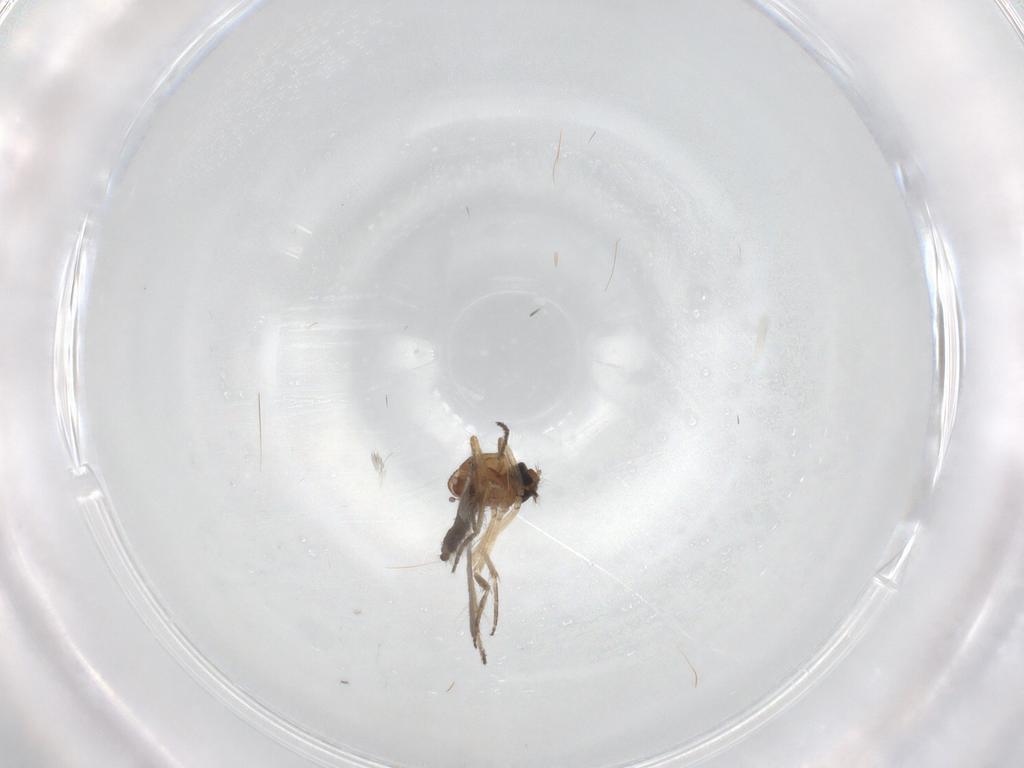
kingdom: Animalia
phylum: Arthropoda
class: Insecta
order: Diptera
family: Ceratopogonidae
